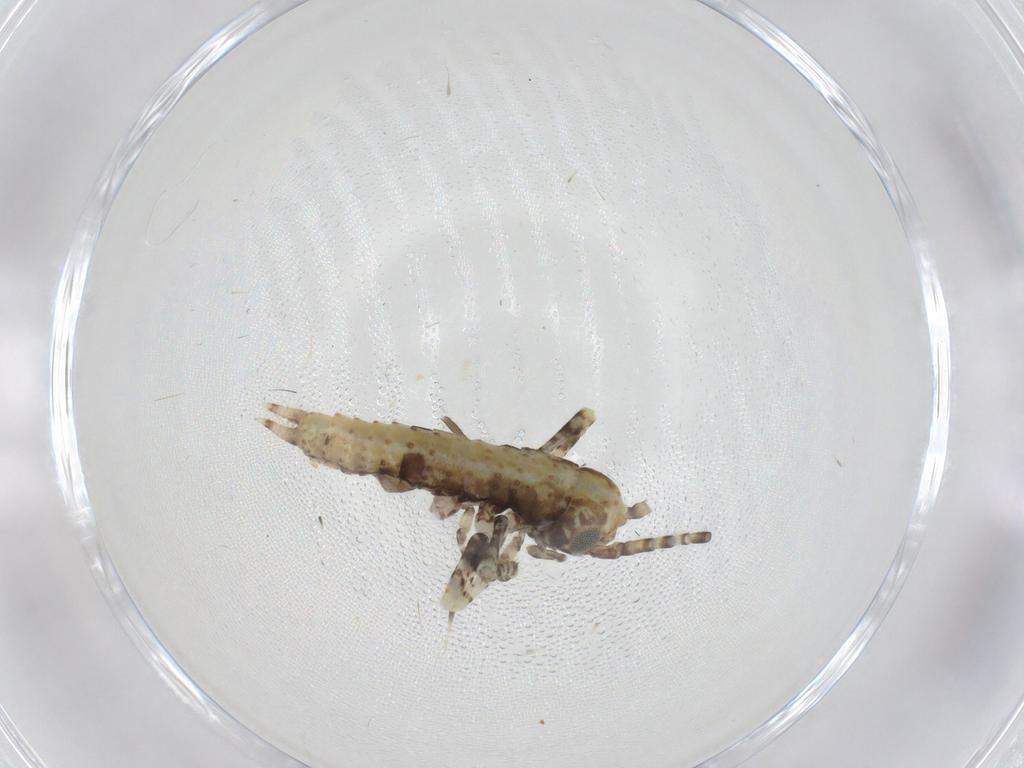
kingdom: Animalia
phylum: Arthropoda
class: Insecta
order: Orthoptera
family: Gryllidae
